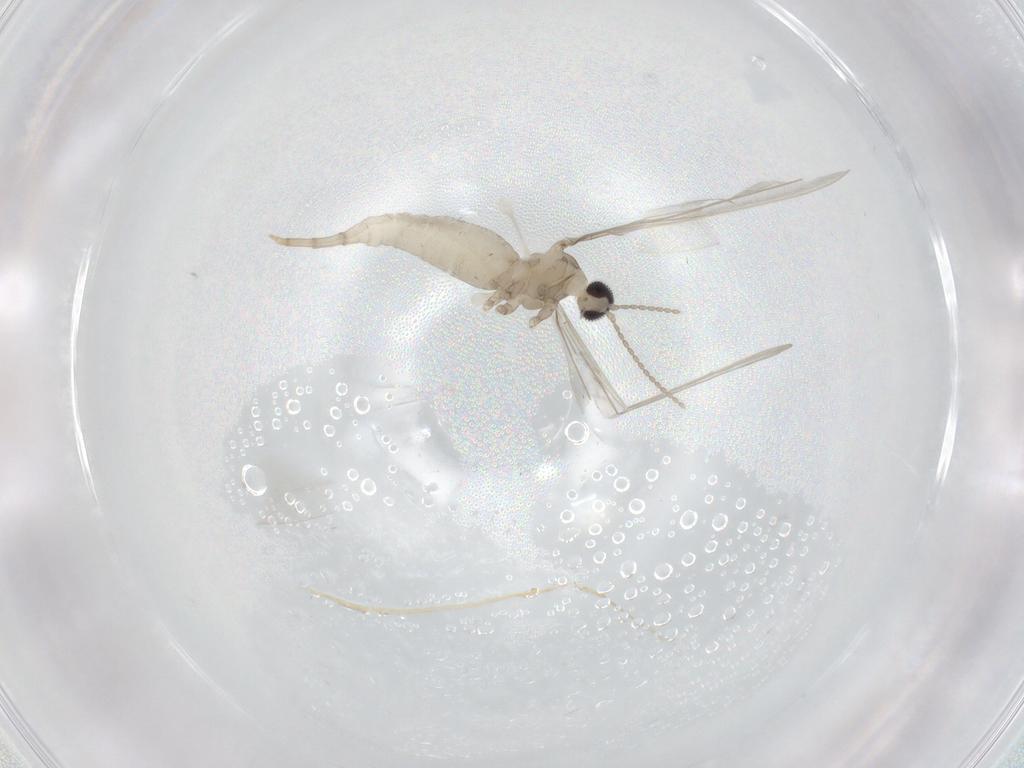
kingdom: Animalia
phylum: Arthropoda
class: Insecta
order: Diptera
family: Cecidomyiidae
